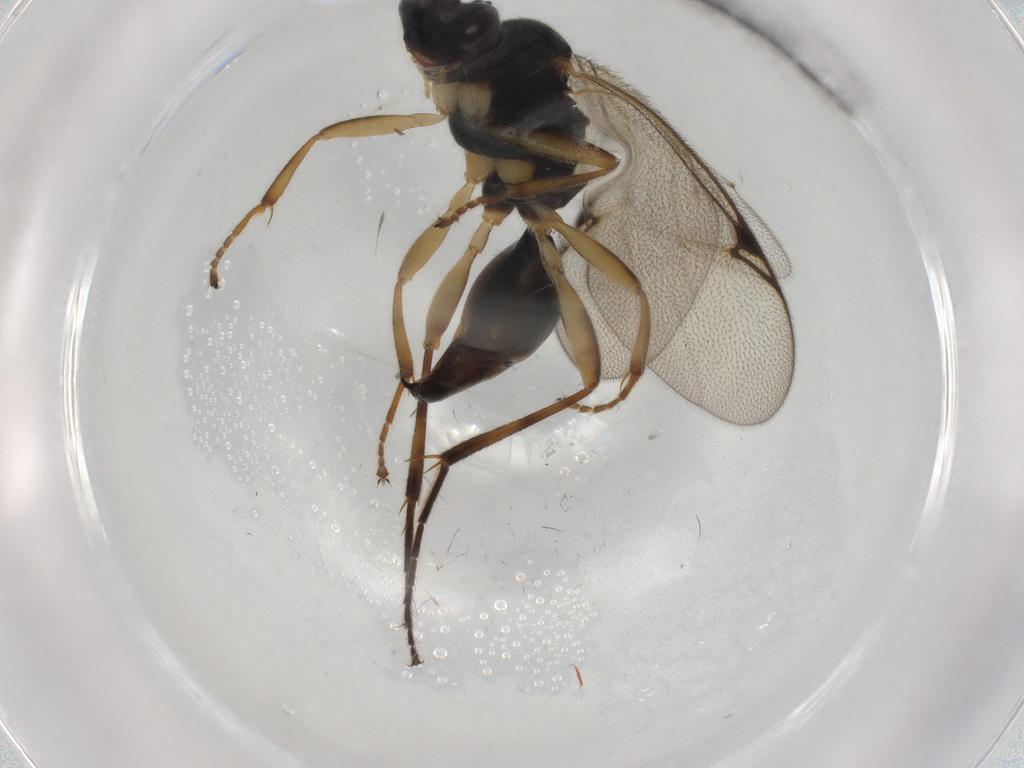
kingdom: Animalia
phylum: Arthropoda
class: Insecta
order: Hymenoptera
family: Proctotrupidae
